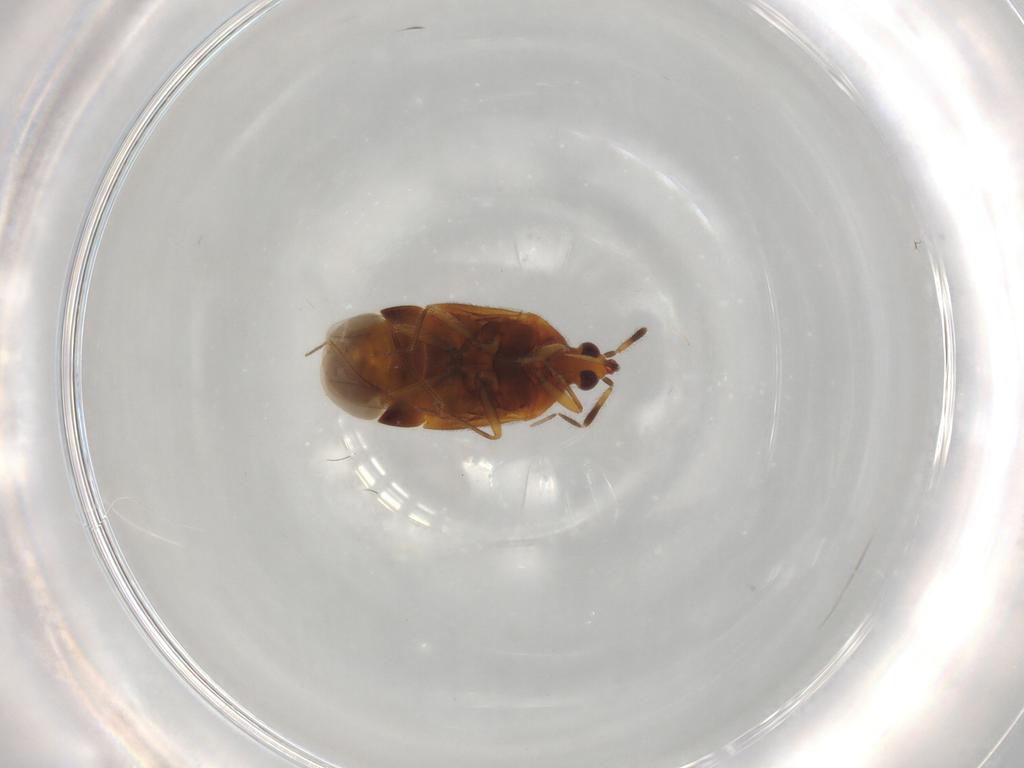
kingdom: Animalia
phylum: Arthropoda
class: Insecta
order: Hemiptera
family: Anthocoridae
